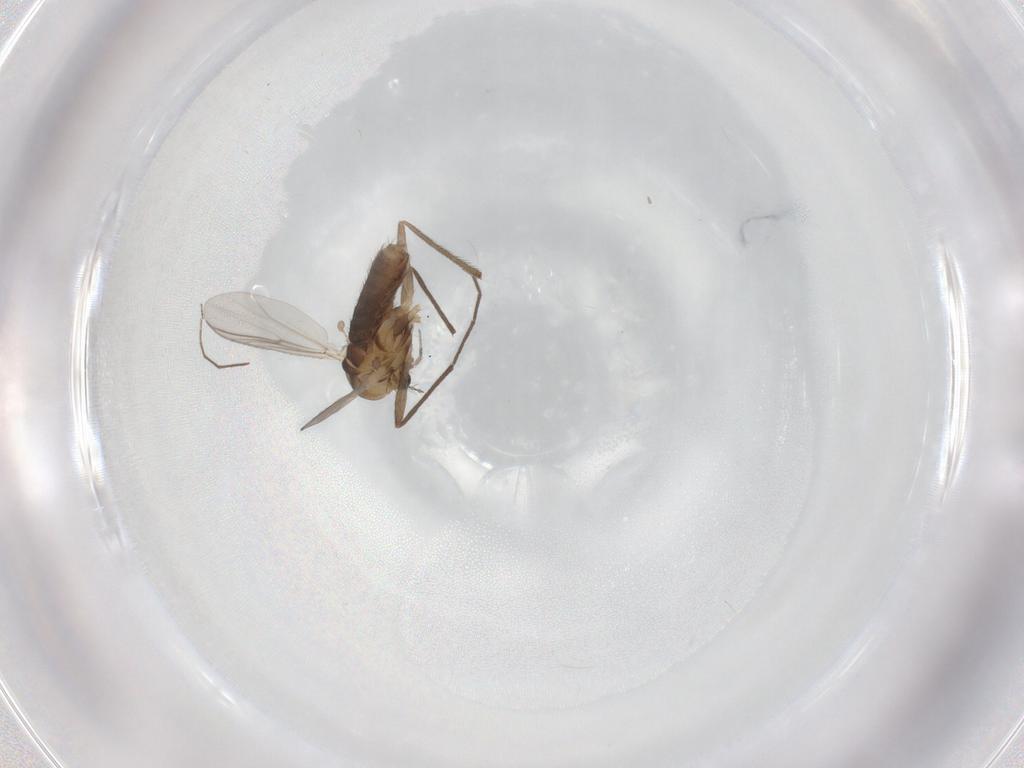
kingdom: Animalia
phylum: Arthropoda
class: Insecta
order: Diptera
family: Chironomidae
